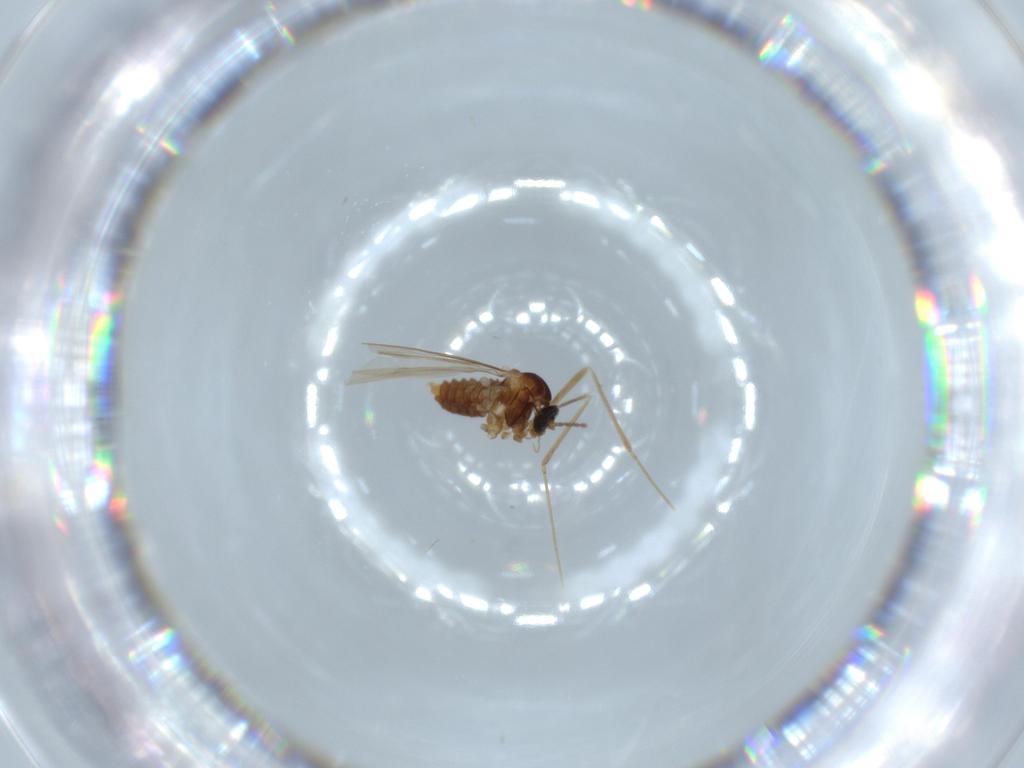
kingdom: Animalia
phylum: Arthropoda
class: Insecta
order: Diptera
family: Cecidomyiidae
